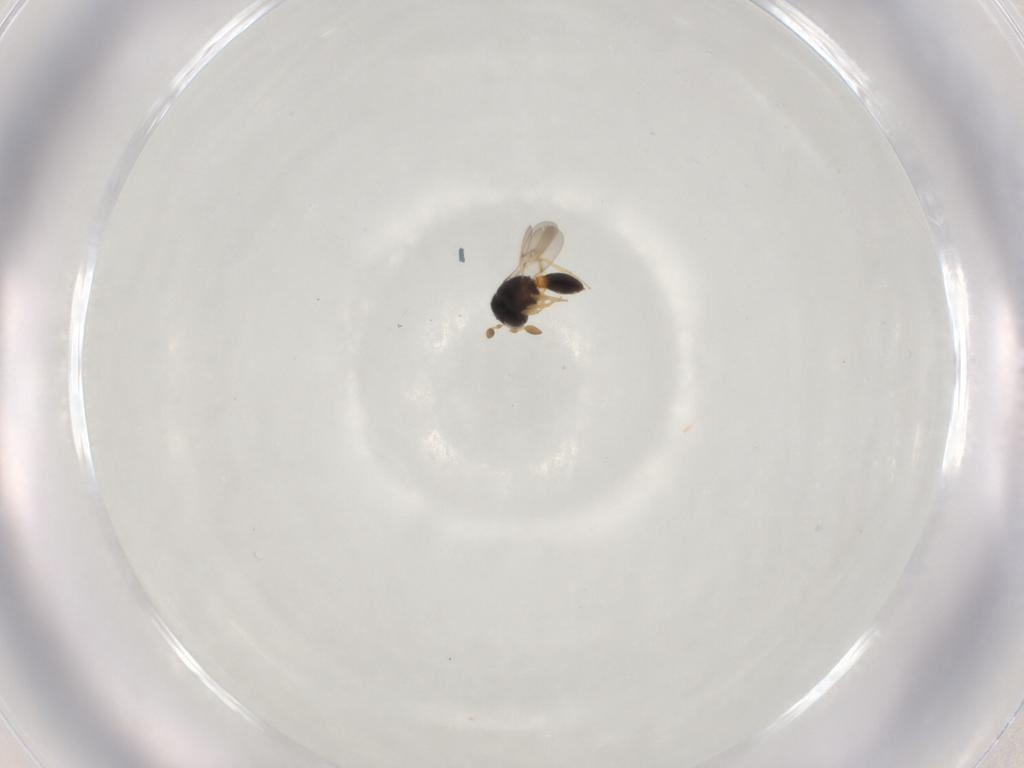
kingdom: Animalia
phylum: Arthropoda
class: Insecta
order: Hymenoptera
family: Scelionidae
